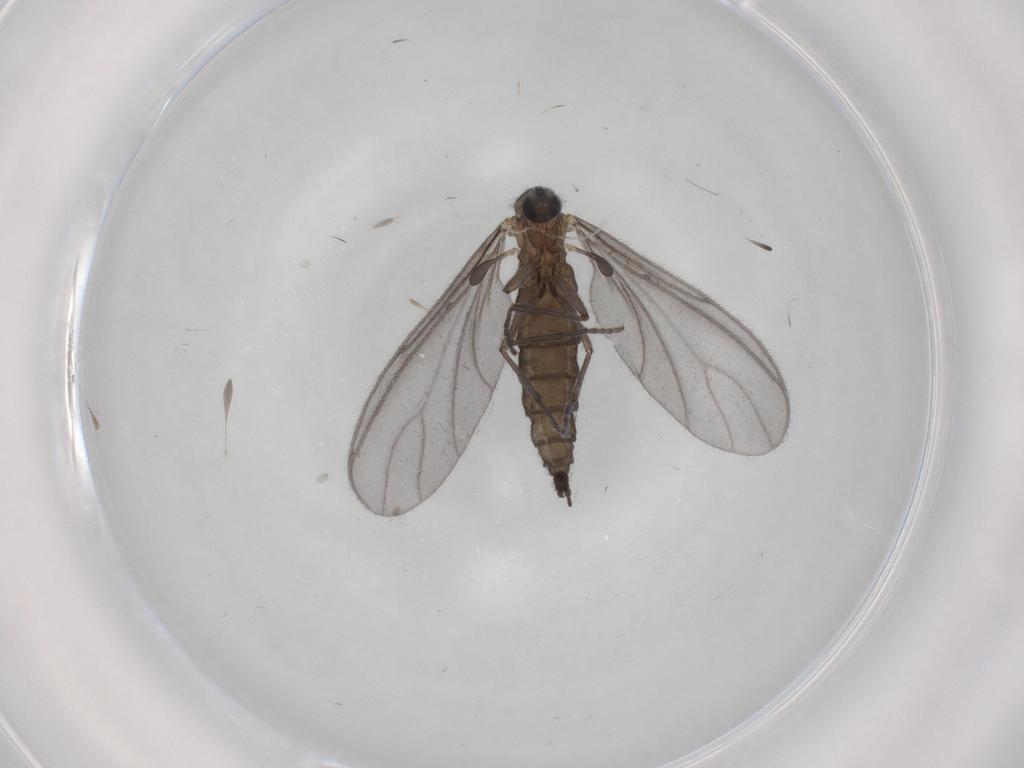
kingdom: Animalia
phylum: Arthropoda
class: Insecta
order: Diptera
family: Sciaridae
